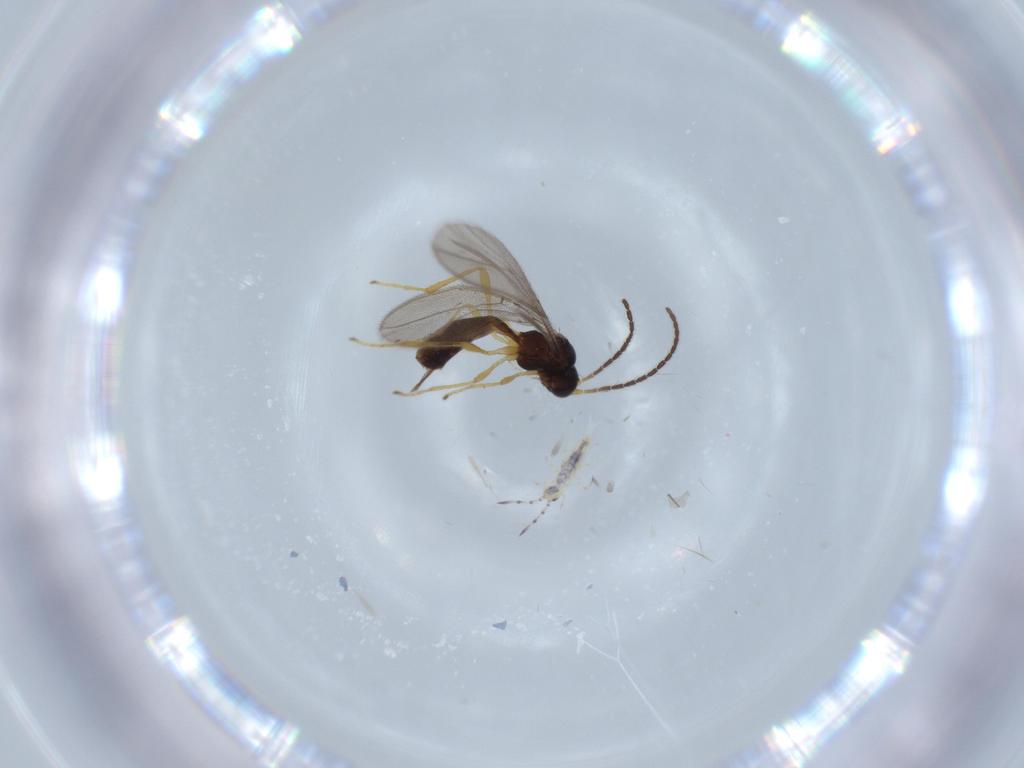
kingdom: Animalia
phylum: Arthropoda
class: Insecta
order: Hymenoptera
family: Braconidae
